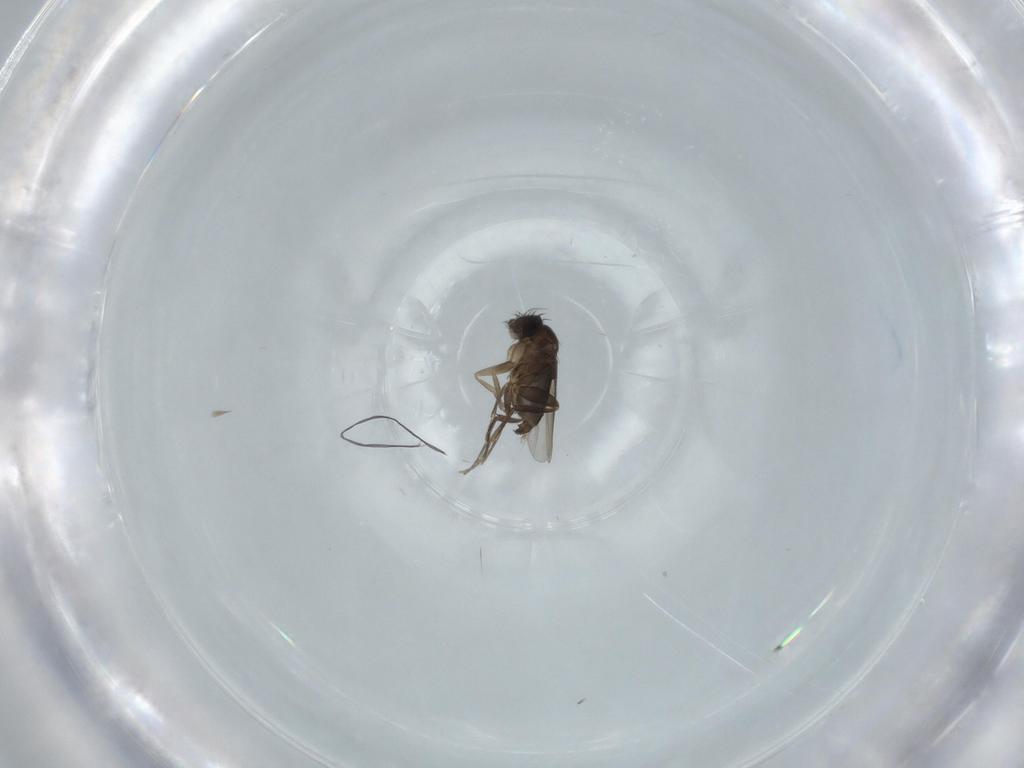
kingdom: Animalia
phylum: Arthropoda
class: Insecta
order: Diptera
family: Phoridae
